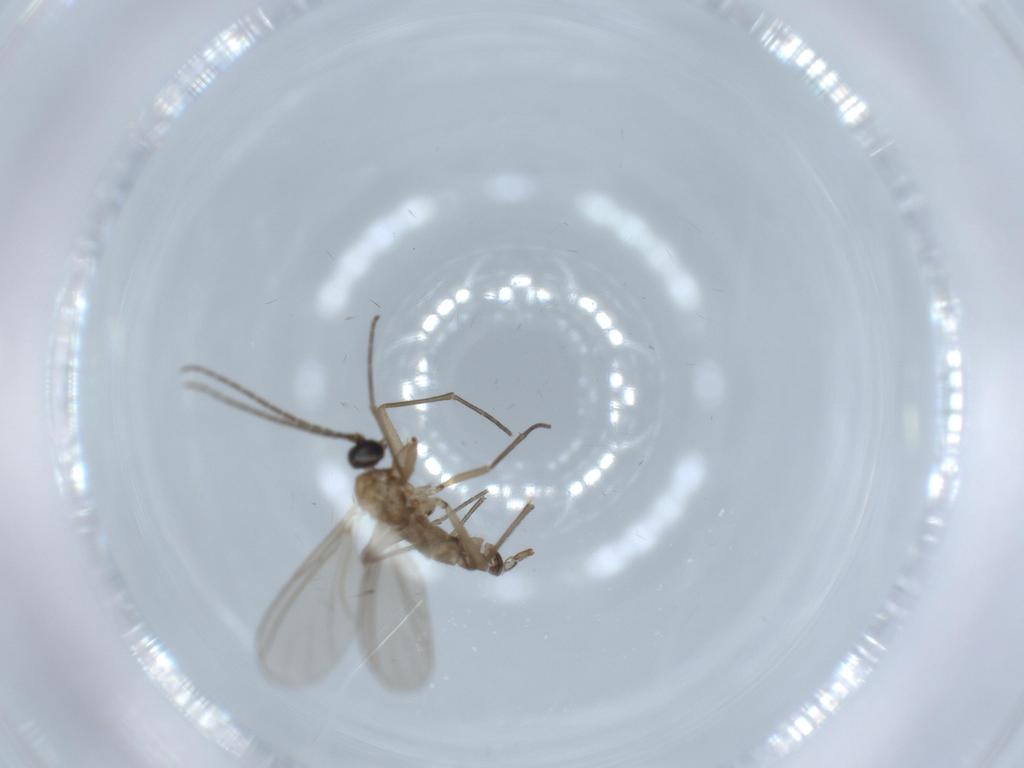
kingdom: Animalia
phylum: Arthropoda
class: Insecta
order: Diptera
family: Sciaridae
